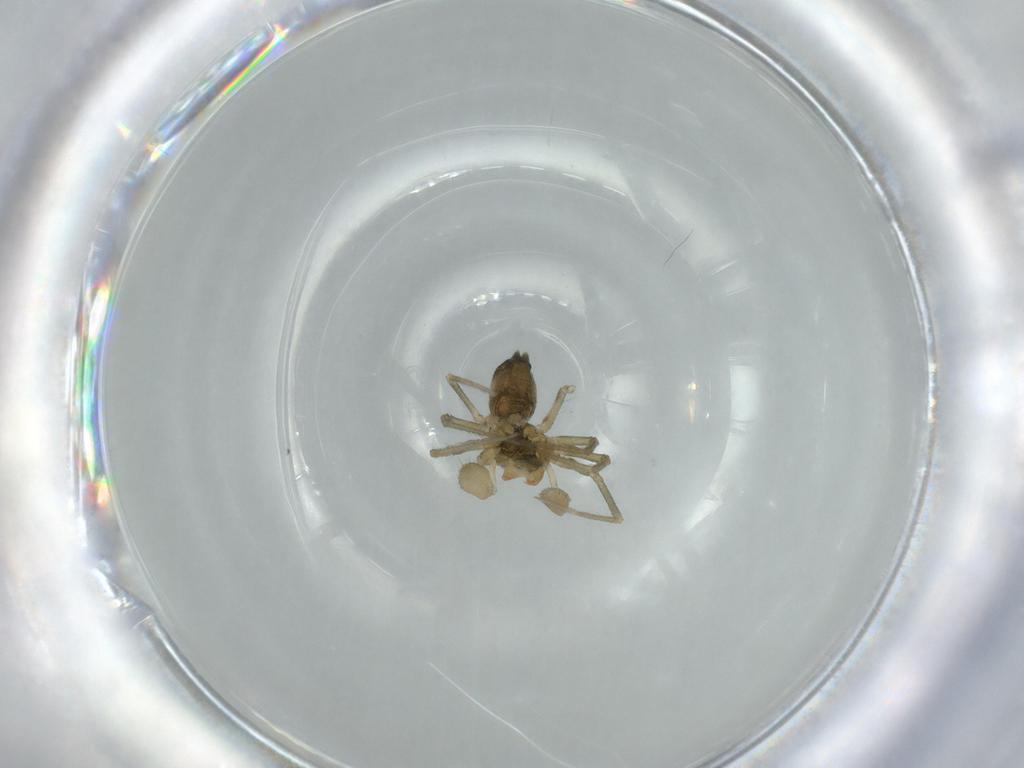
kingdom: Animalia
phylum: Arthropoda
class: Arachnida
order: Araneae
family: Linyphiidae
